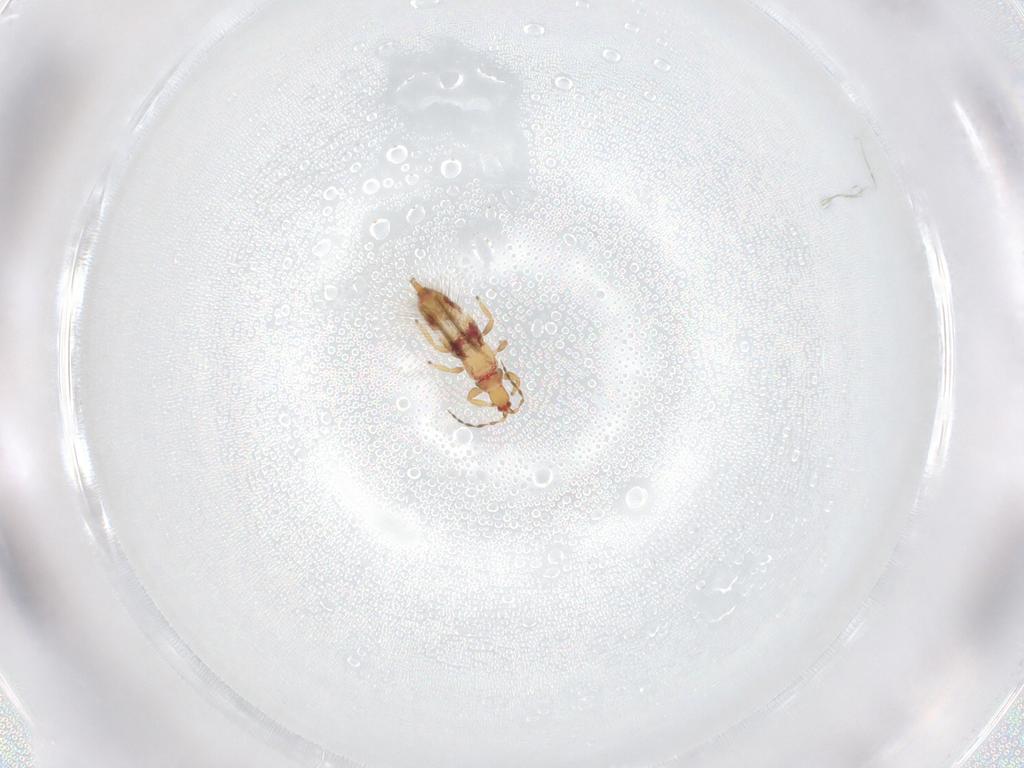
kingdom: Animalia
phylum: Arthropoda
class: Insecta
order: Thysanoptera
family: Phlaeothripidae
